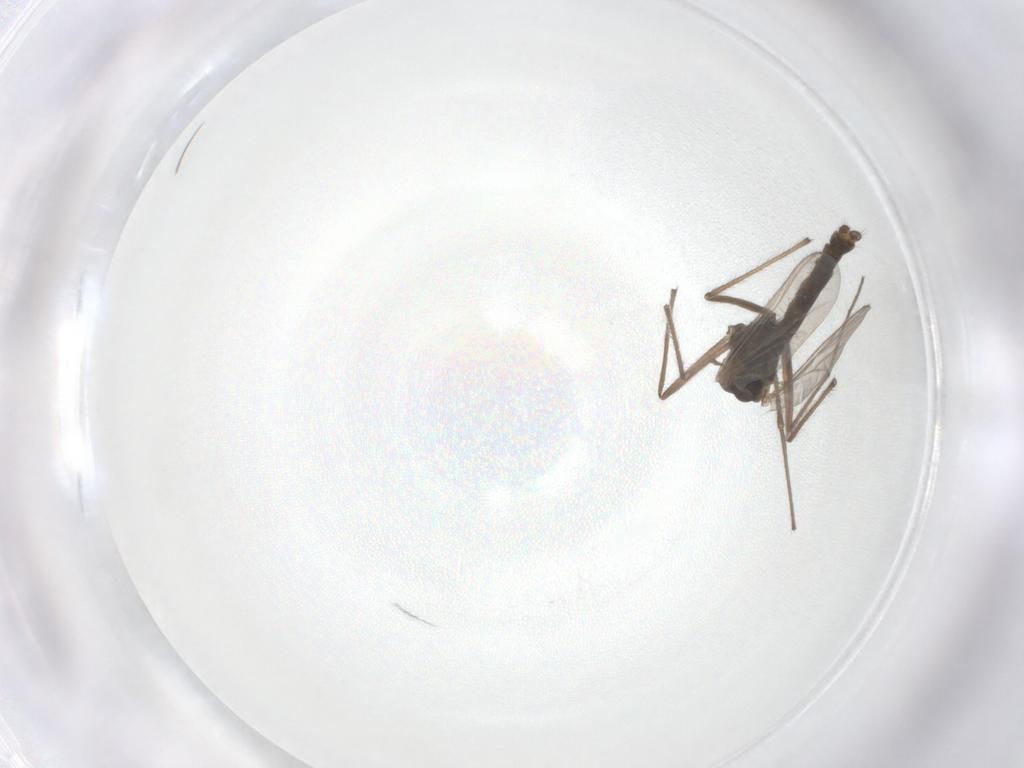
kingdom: Animalia
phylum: Arthropoda
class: Insecta
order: Diptera
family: Chironomidae
